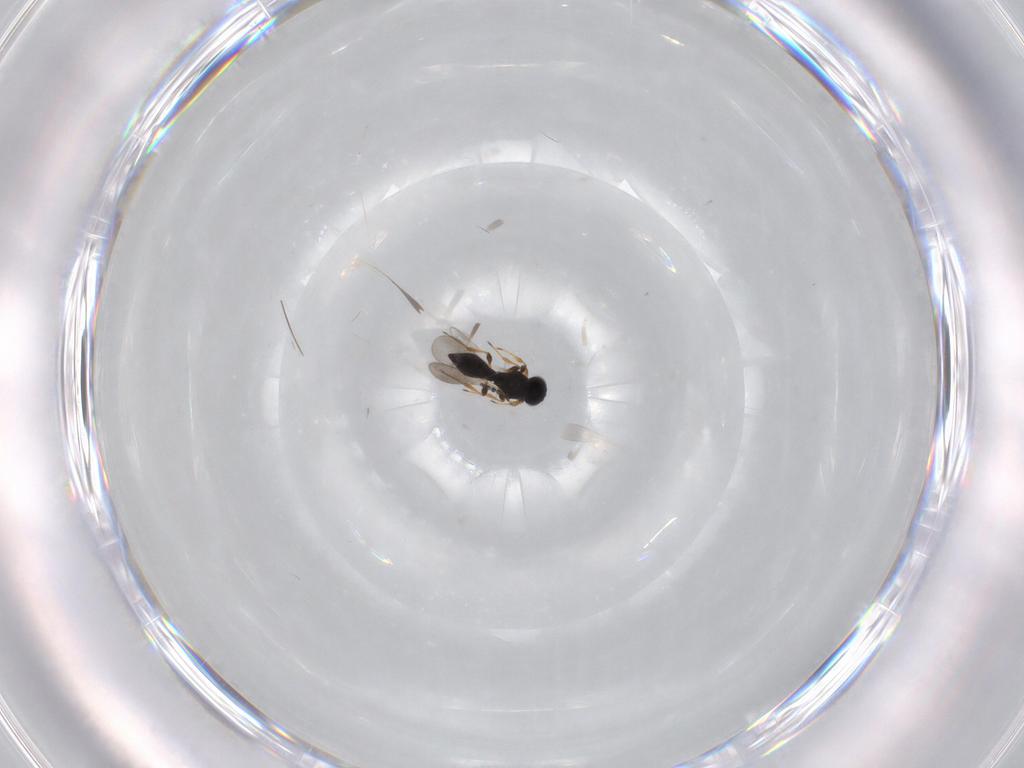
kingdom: Animalia
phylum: Arthropoda
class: Insecta
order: Hymenoptera
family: Platygastridae
